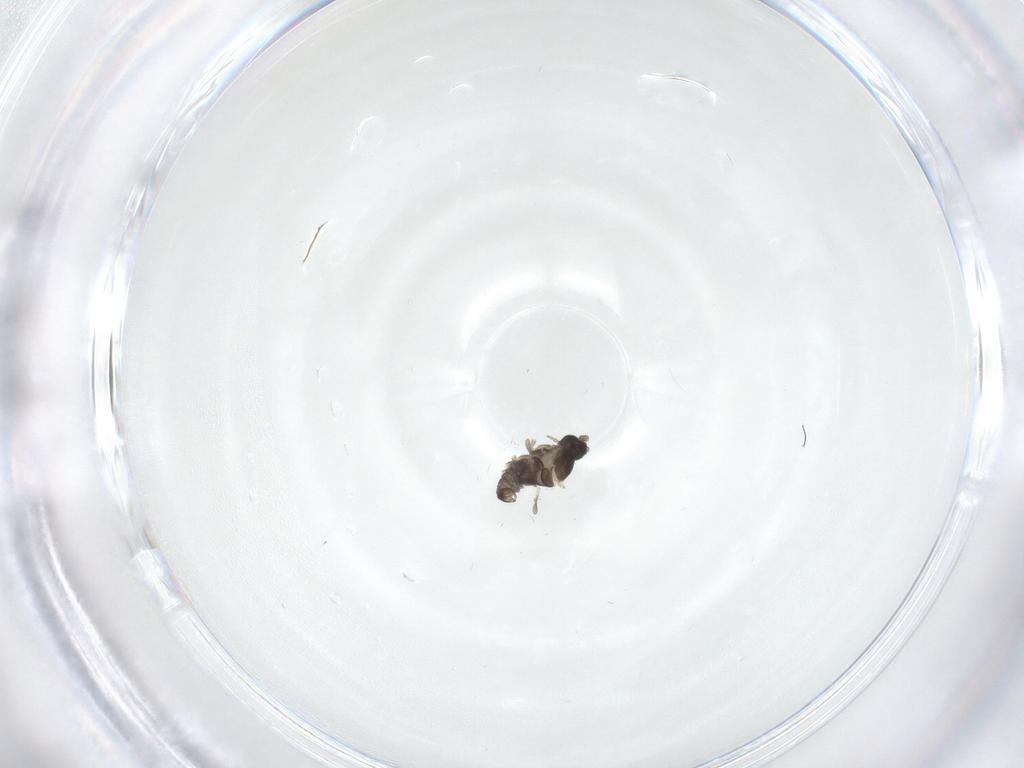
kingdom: Animalia
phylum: Arthropoda
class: Insecta
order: Diptera
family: Cecidomyiidae
